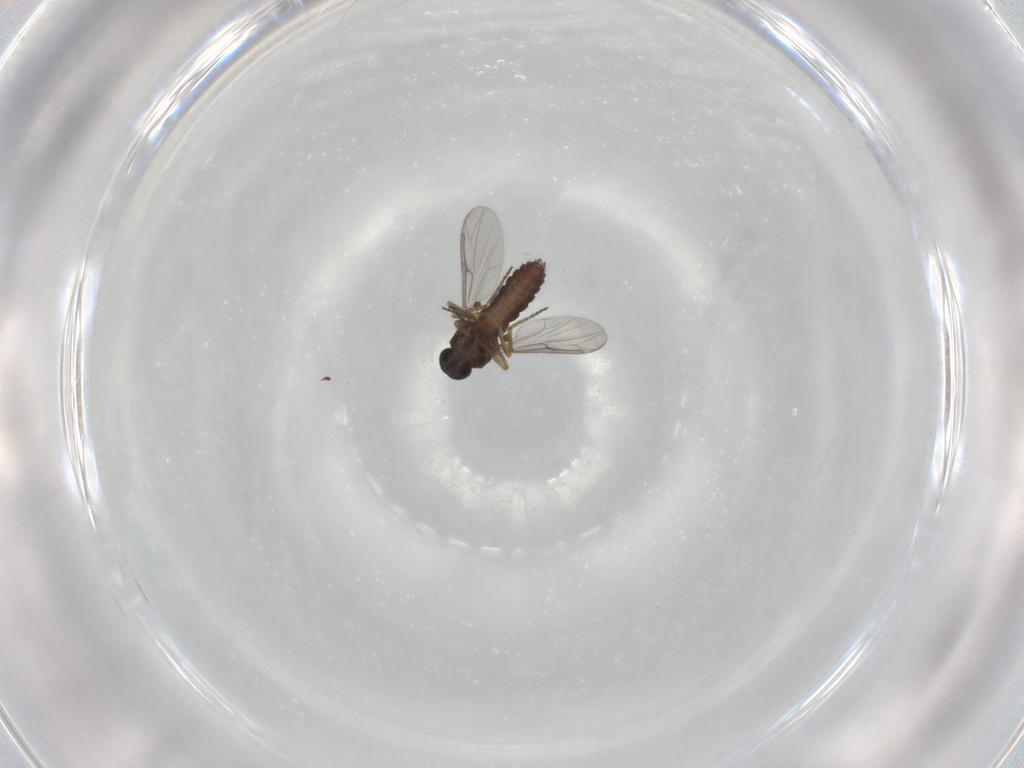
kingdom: Animalia
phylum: Arthropoda
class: Insecta
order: Diptera
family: Ceratopogonidae
